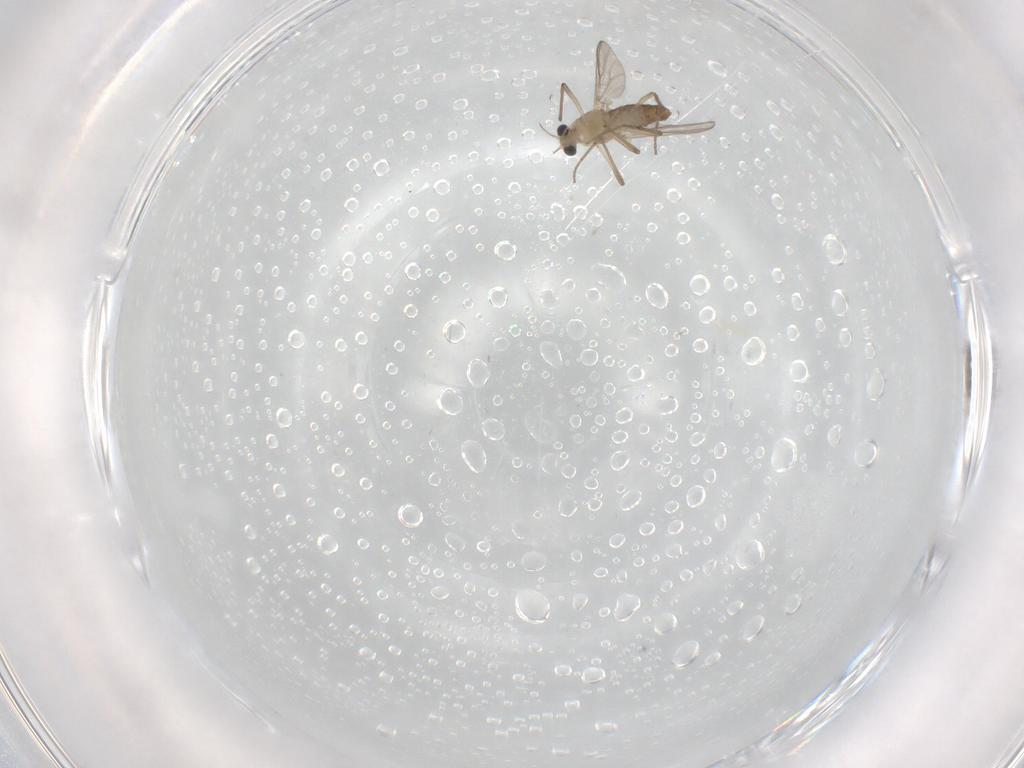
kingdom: Animalia
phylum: Arthropoda
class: Insecta
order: Diptera
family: Chironomidae
